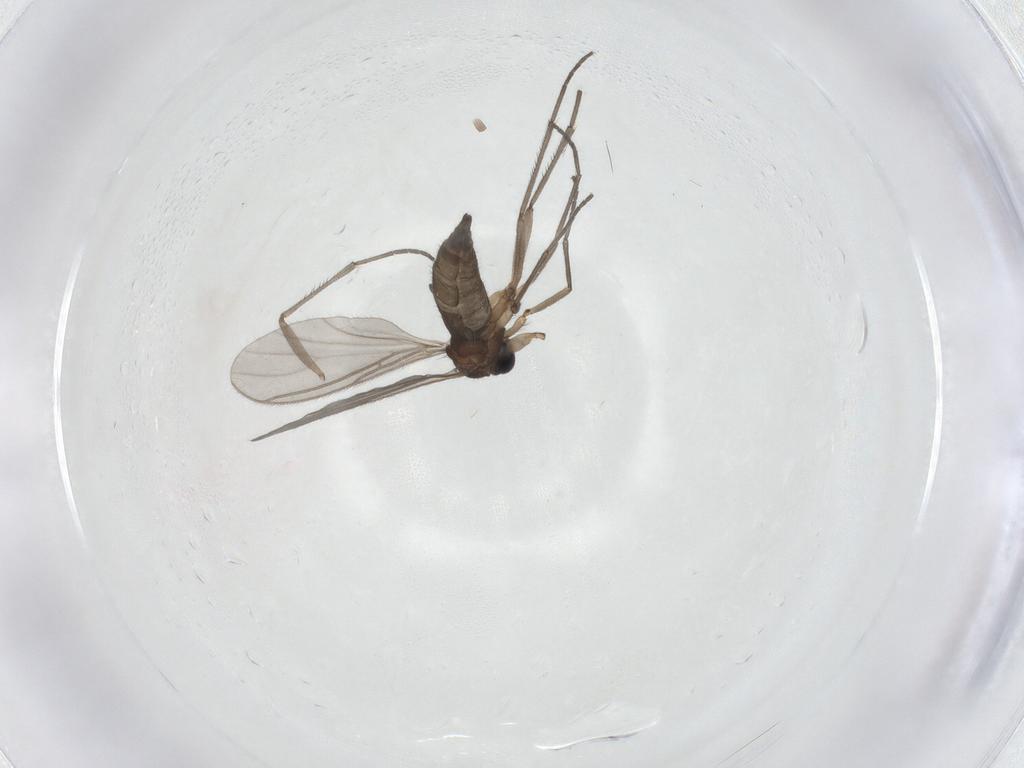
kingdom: Animalia
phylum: Arthropoda
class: Insecta
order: Diptera
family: Sciaridae
